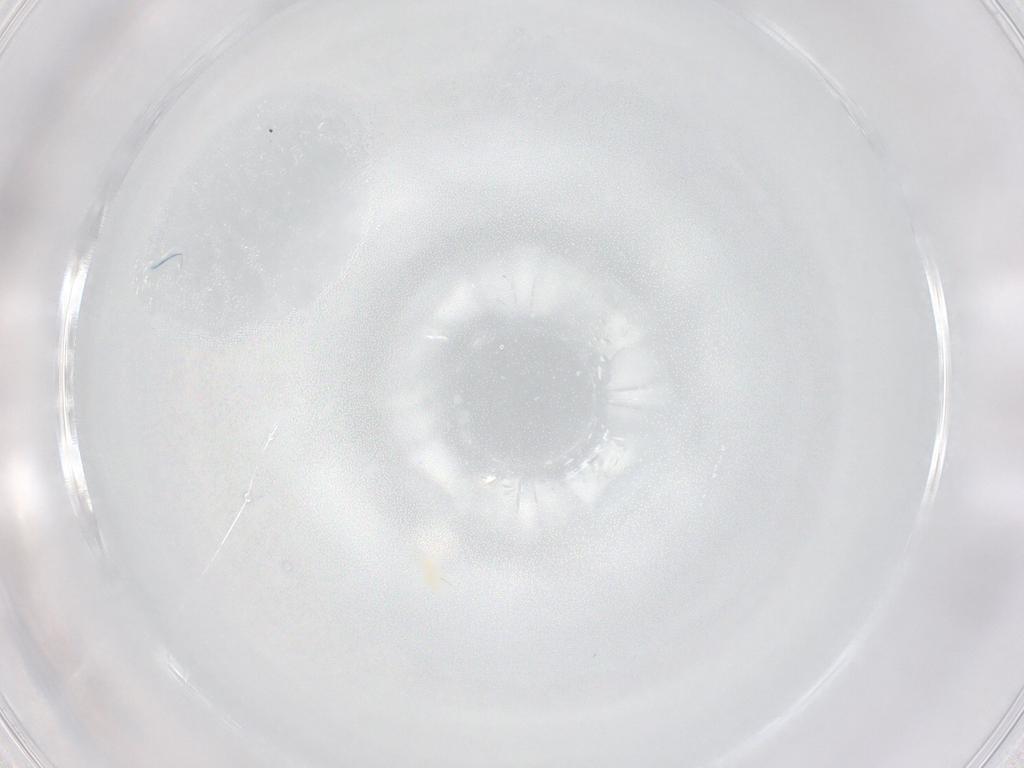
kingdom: Animalia
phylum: Arthropoda
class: Arachnida
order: Trombidiformes
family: Eupodidae
